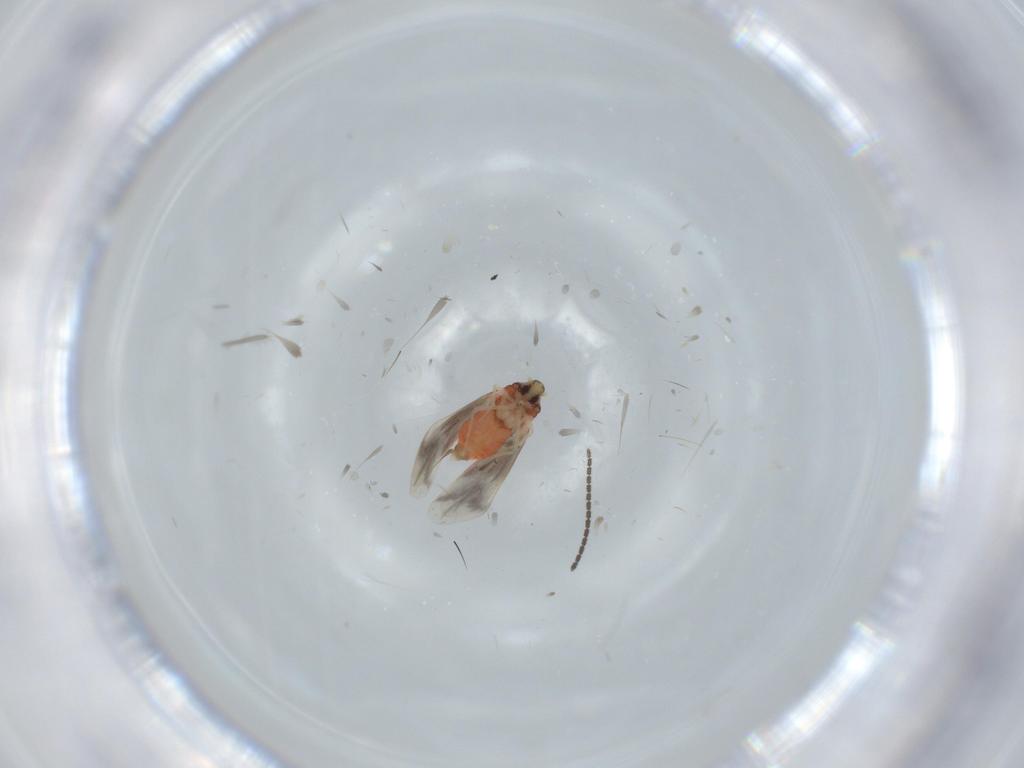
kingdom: Animalia
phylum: Arthropoda
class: Insecta
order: Hemiptera
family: Aleyrodidae
